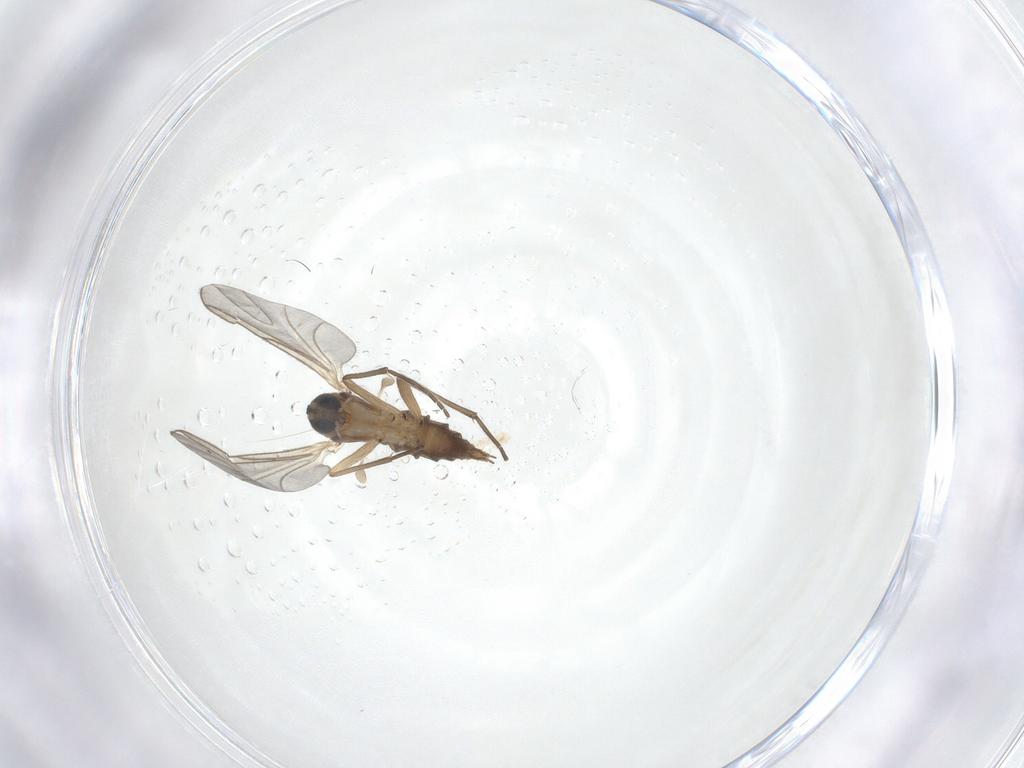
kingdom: Animalia
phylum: Arthropoda
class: Insecta
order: Diptera
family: Sciaridae
